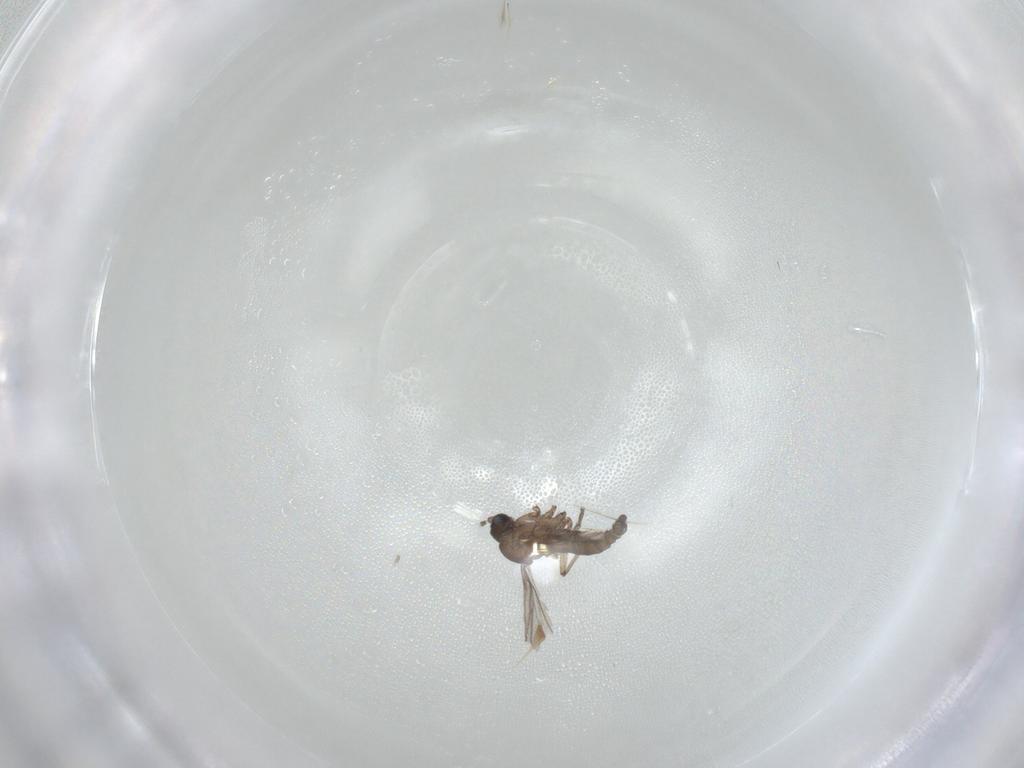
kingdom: Animalia
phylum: Arthropoda
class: Insecta
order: Diptera
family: Sciaridae
